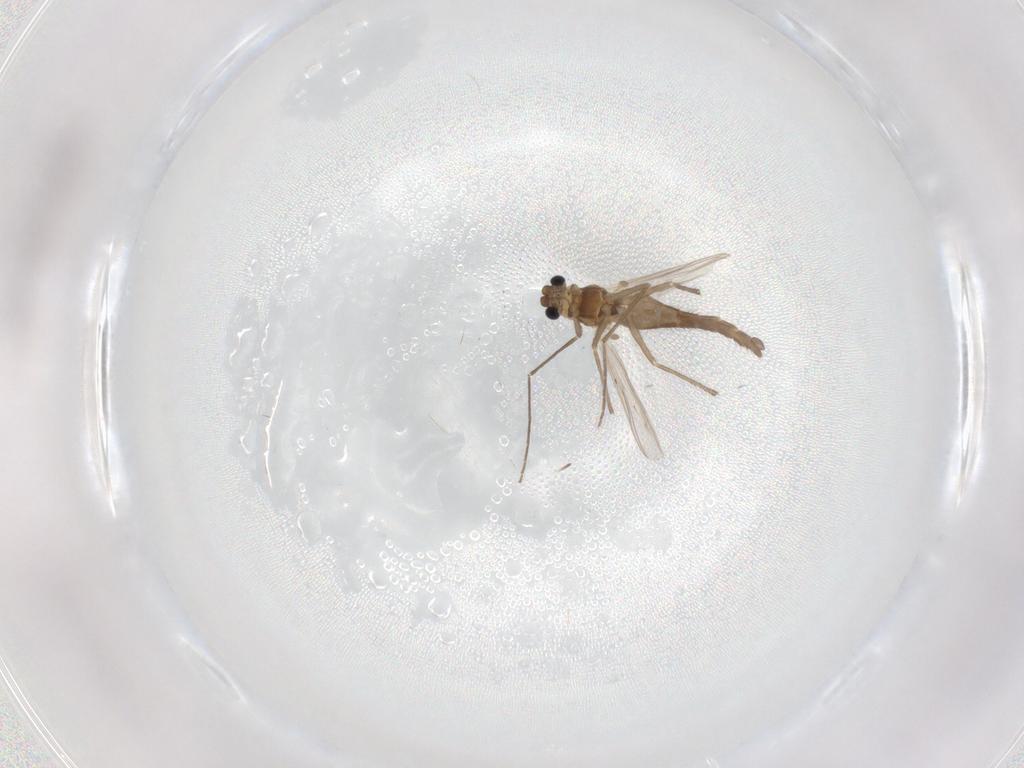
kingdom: Animalia
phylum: Arthropoda
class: Insecta
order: Diptera
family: Chironomidae
